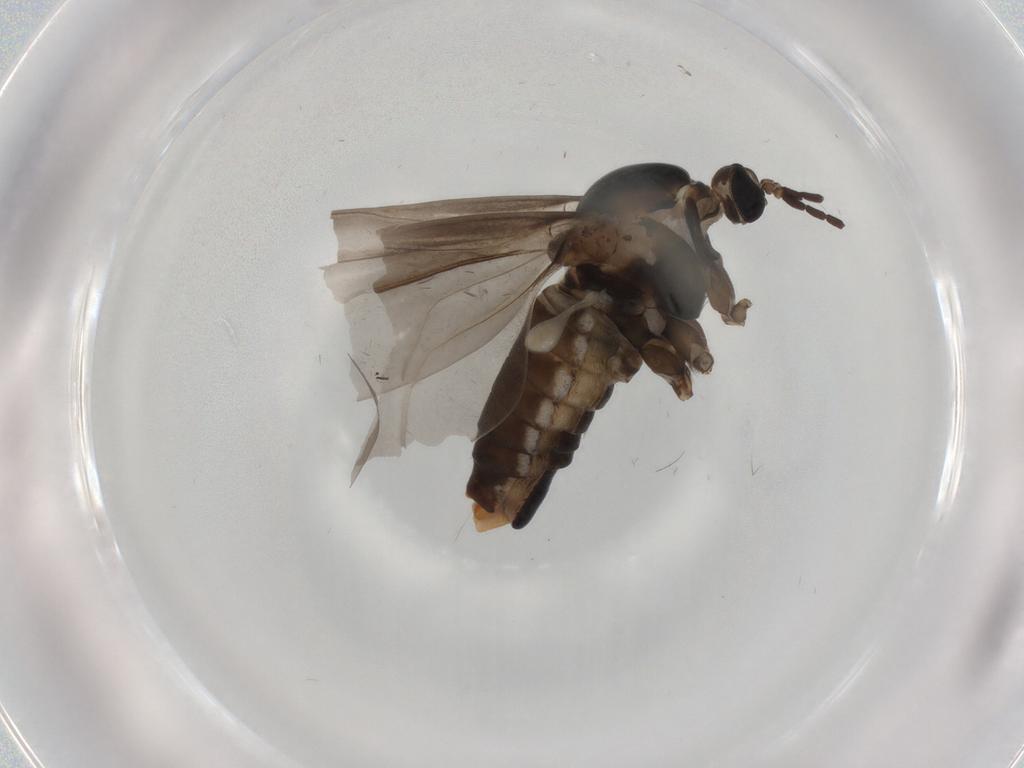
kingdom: Animalia
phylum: Arthropoda
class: Insecta
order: Diptera
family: Cecidomyiidae
